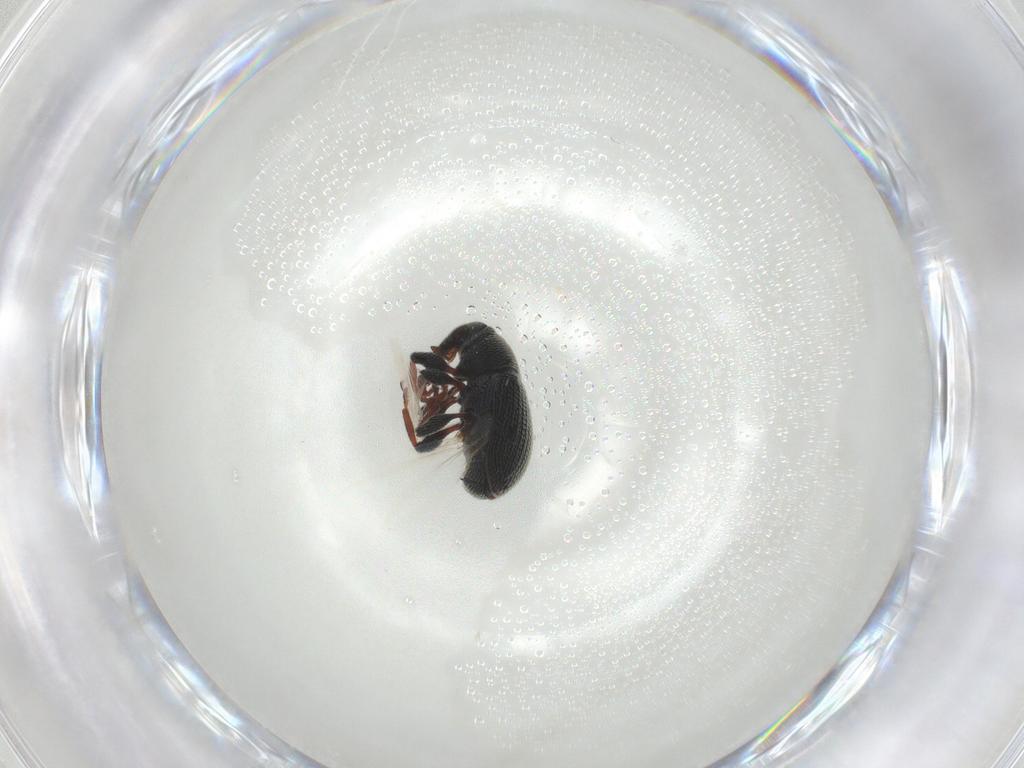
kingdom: Animalia
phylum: Arthropoda
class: Insecta
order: Coleoptera
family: Curculionidae
